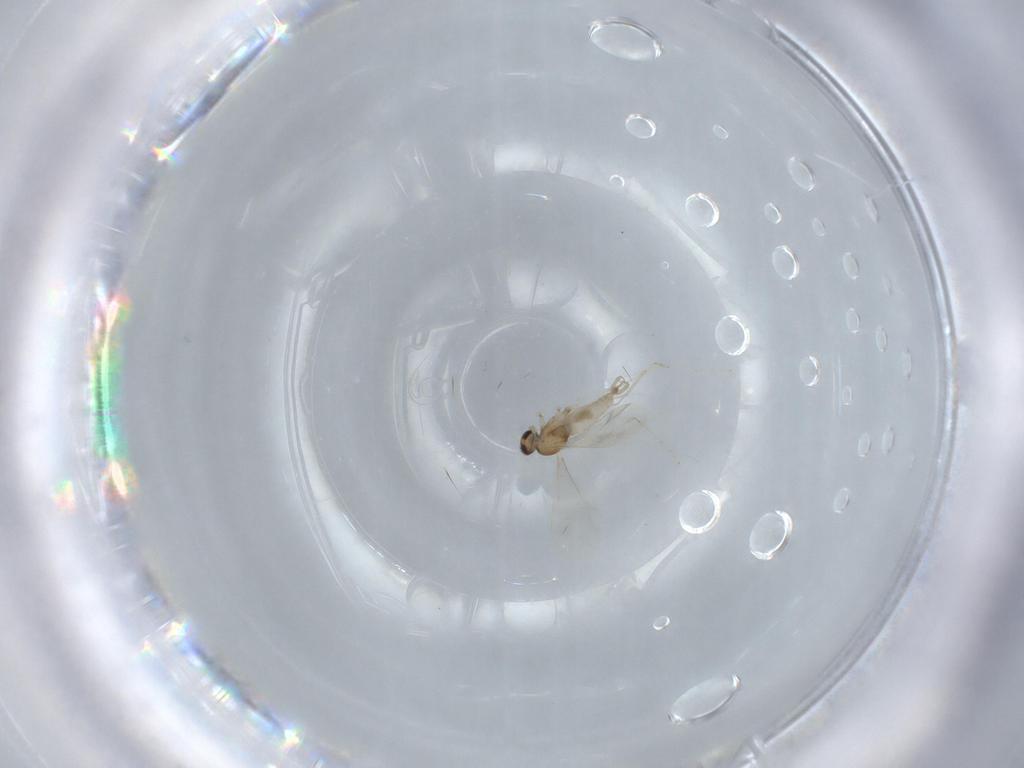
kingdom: Animalia
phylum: Arthropoda
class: Insecta
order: Diptera
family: Cecidomyiidae
